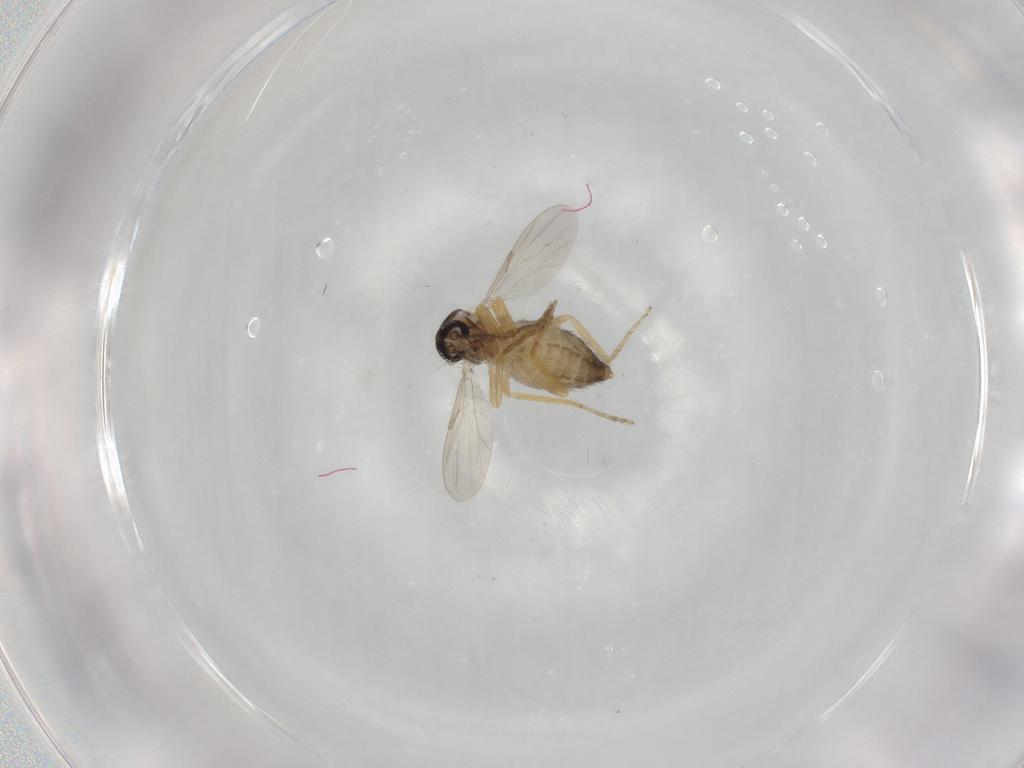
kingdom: Animalia
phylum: Arthropoda
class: Insecta
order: Diptera
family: Ceratopogonidae
